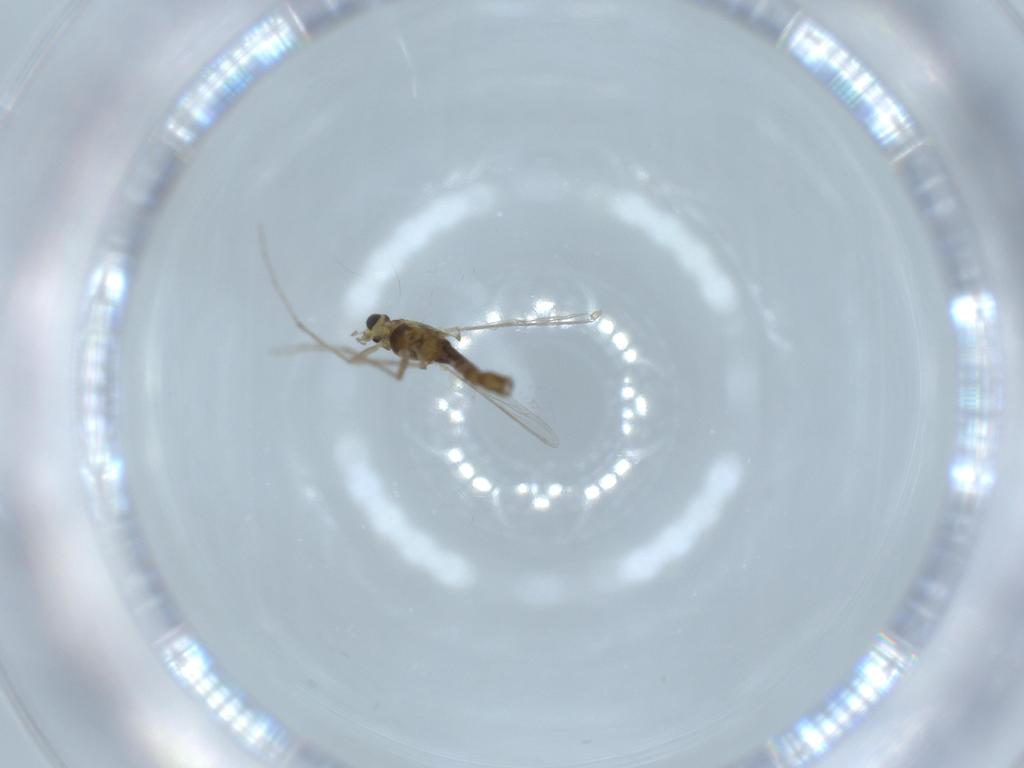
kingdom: Animalia
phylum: Arthropoda
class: Insecta
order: Diptera
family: Chironomidae
